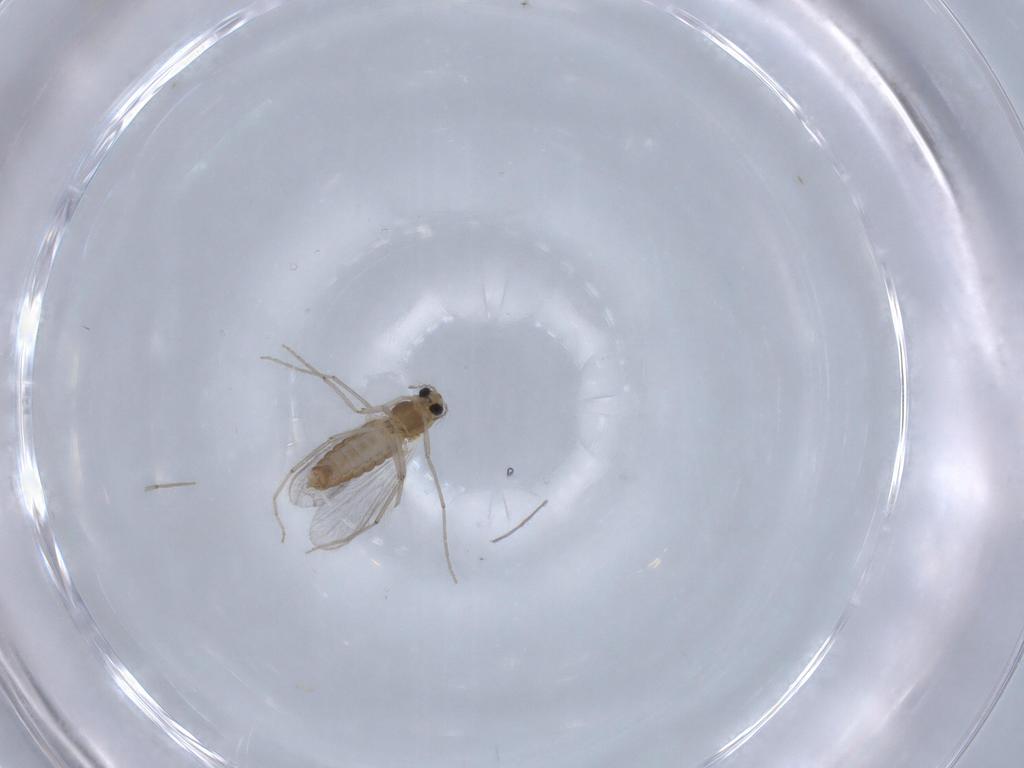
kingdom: Animalia
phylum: Arthropoda
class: Insecta
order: Diptera
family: Chironomidae
